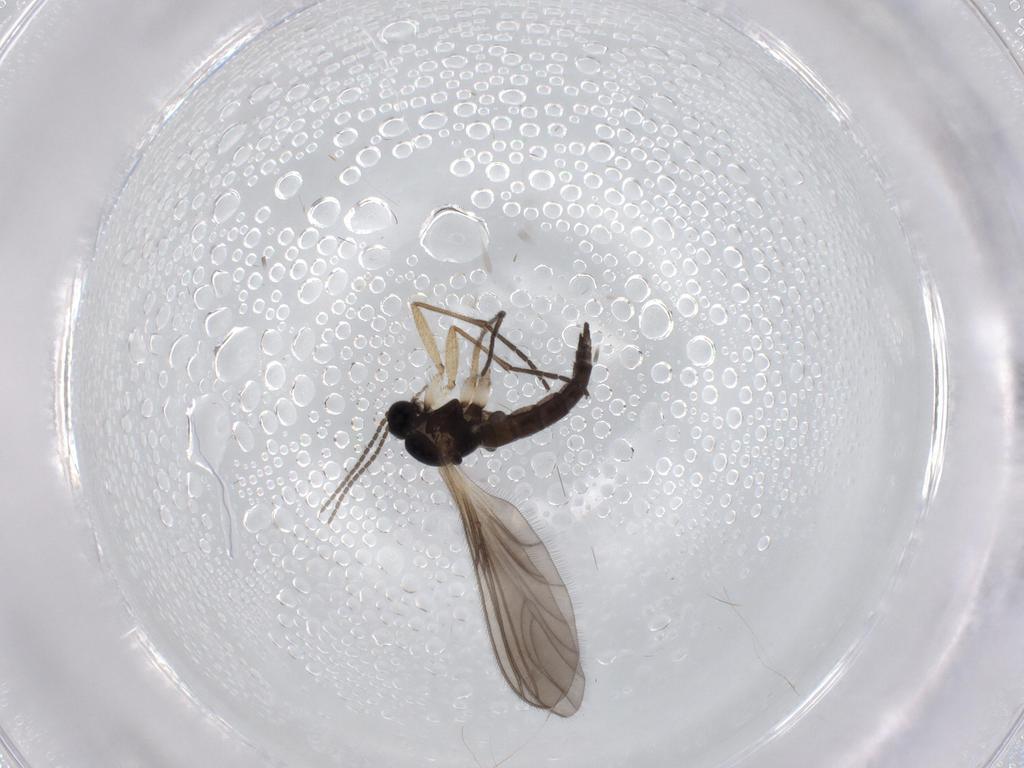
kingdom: Animalia
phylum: Arthropoda
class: Insecta
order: Diptera
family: Sciaridae
